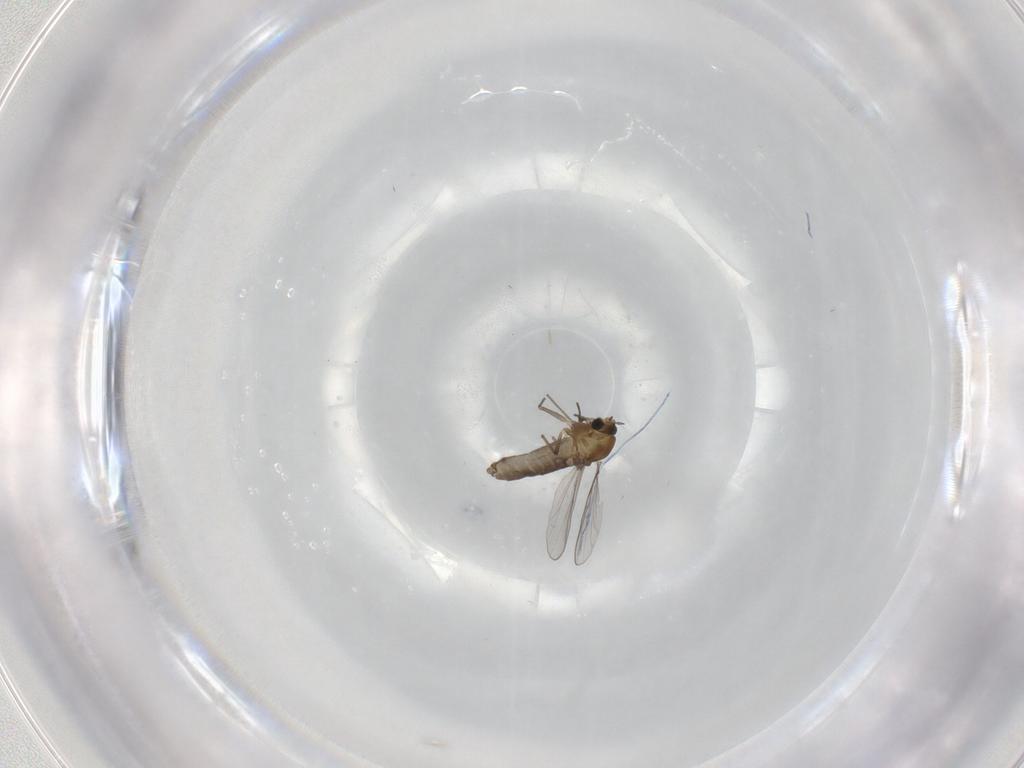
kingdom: Animalia
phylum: Arthropoda
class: Insecta
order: Diptera
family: Chironomidae
